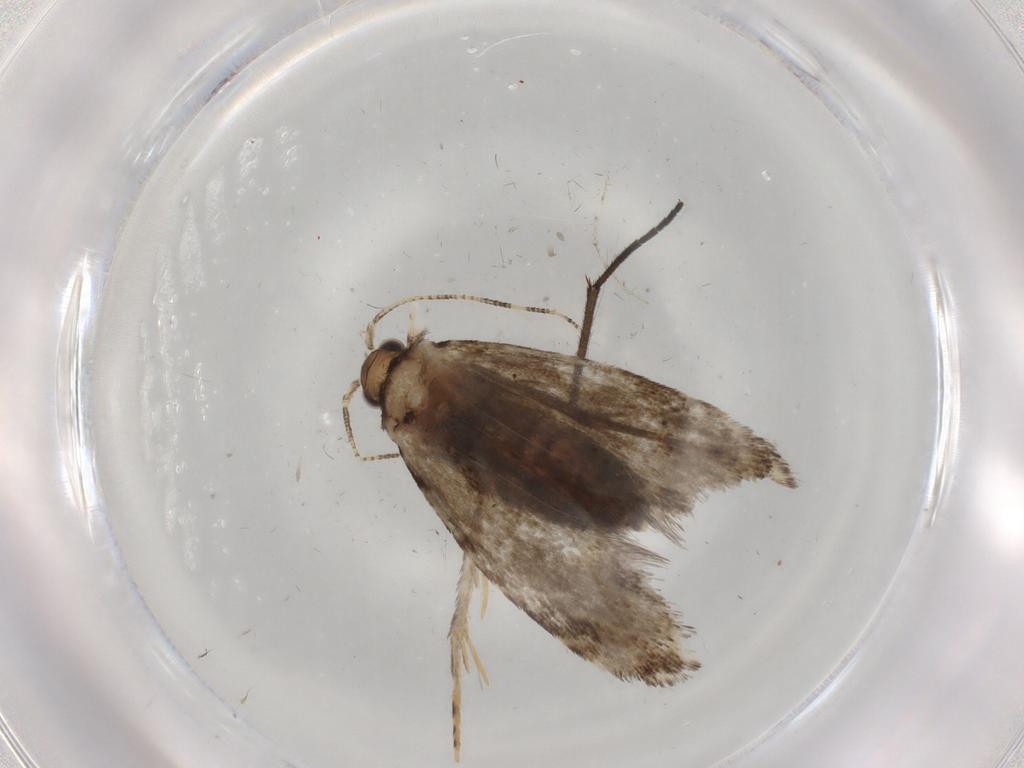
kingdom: Animalia
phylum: Arthropoda
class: Insecta
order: Lepidoptera
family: Tineidae
